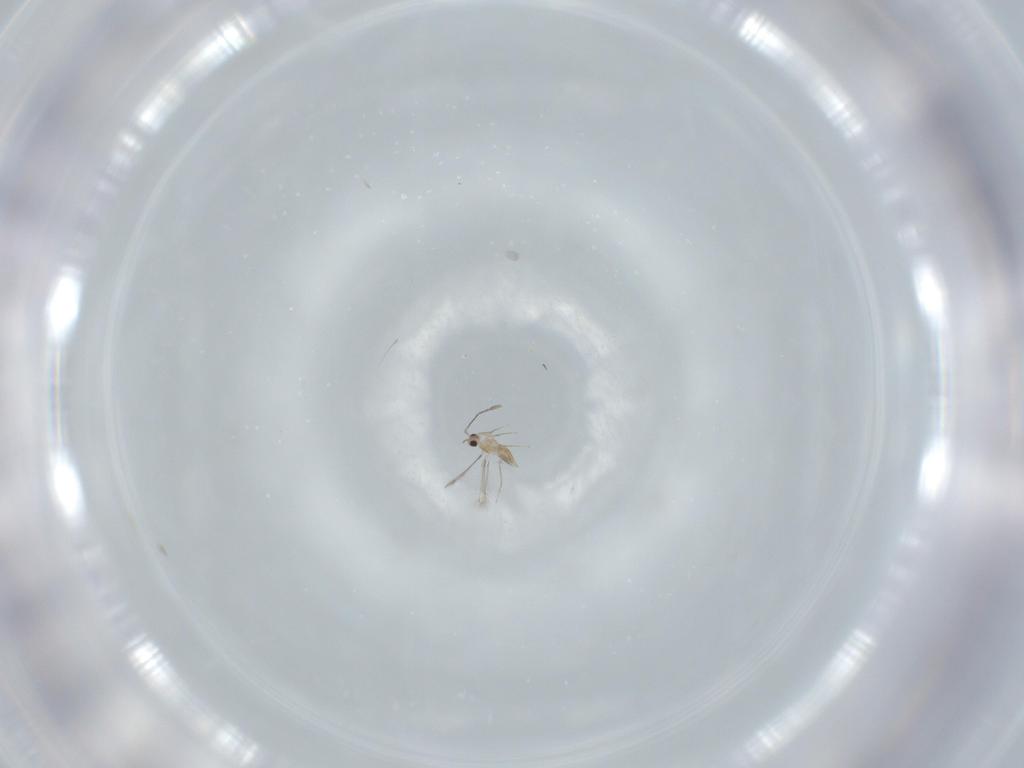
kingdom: Animalia
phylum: Arthropoda
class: Insecta
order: Hymenoptera
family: Mymaridae
